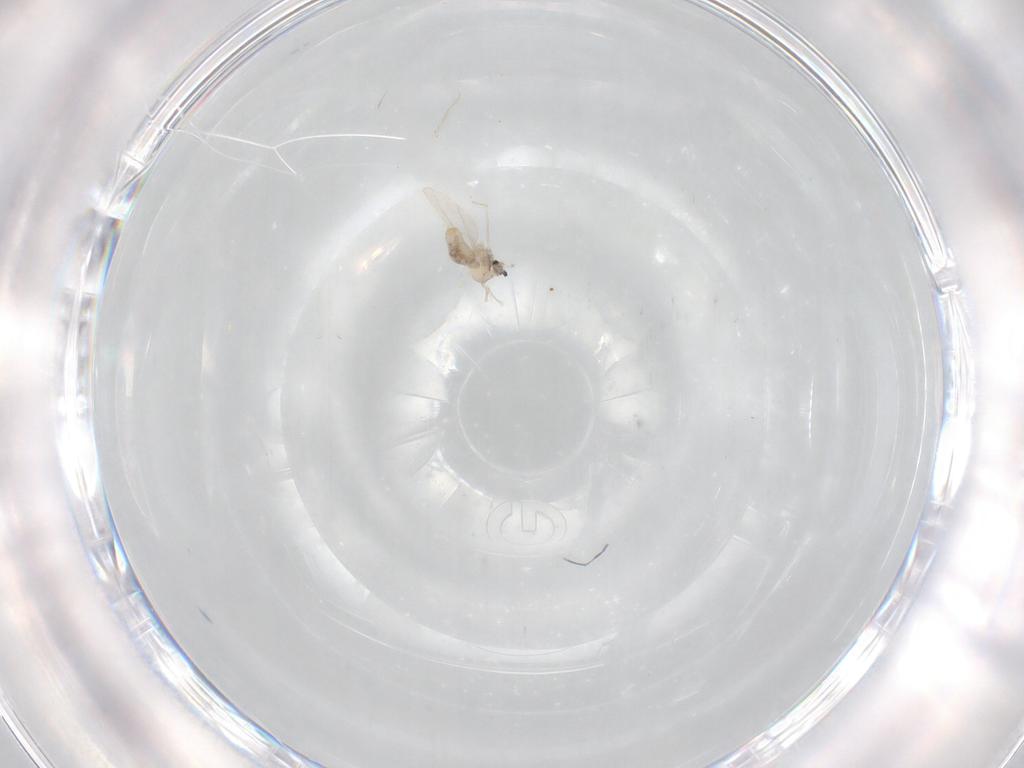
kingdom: Animalia
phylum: Arthropoda
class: Insecta
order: Diptera
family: Cecidomyiidae
